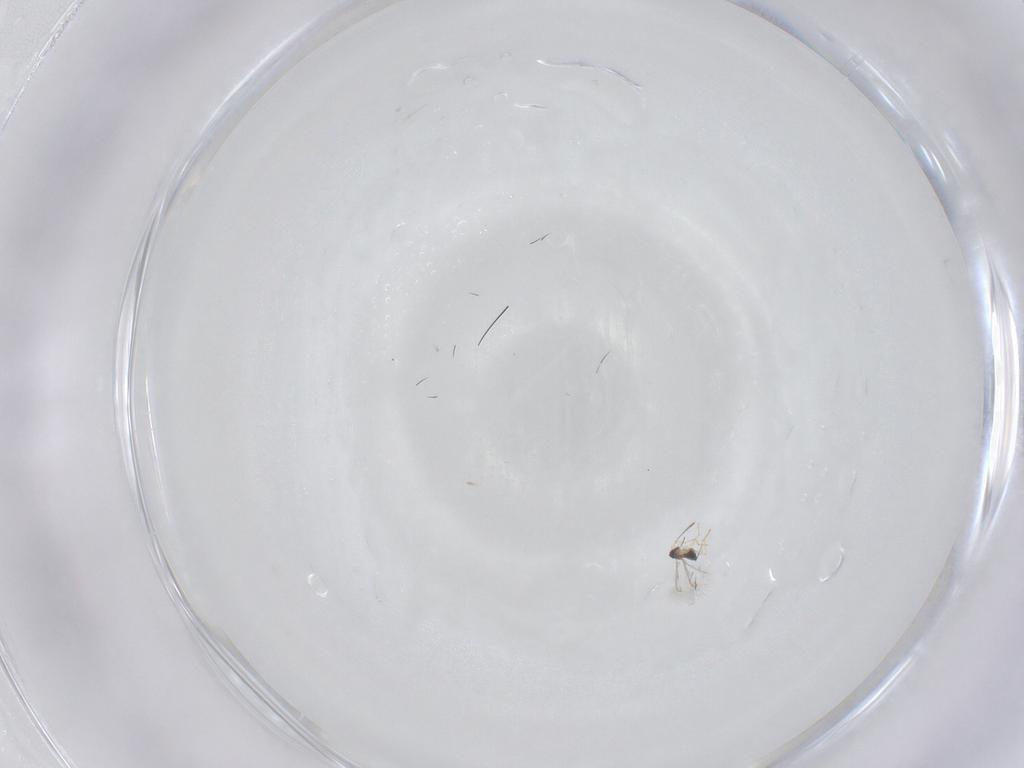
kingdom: Animalia
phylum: Arthropoda
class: Insecta
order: Hymenoptera
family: Mymaridae
